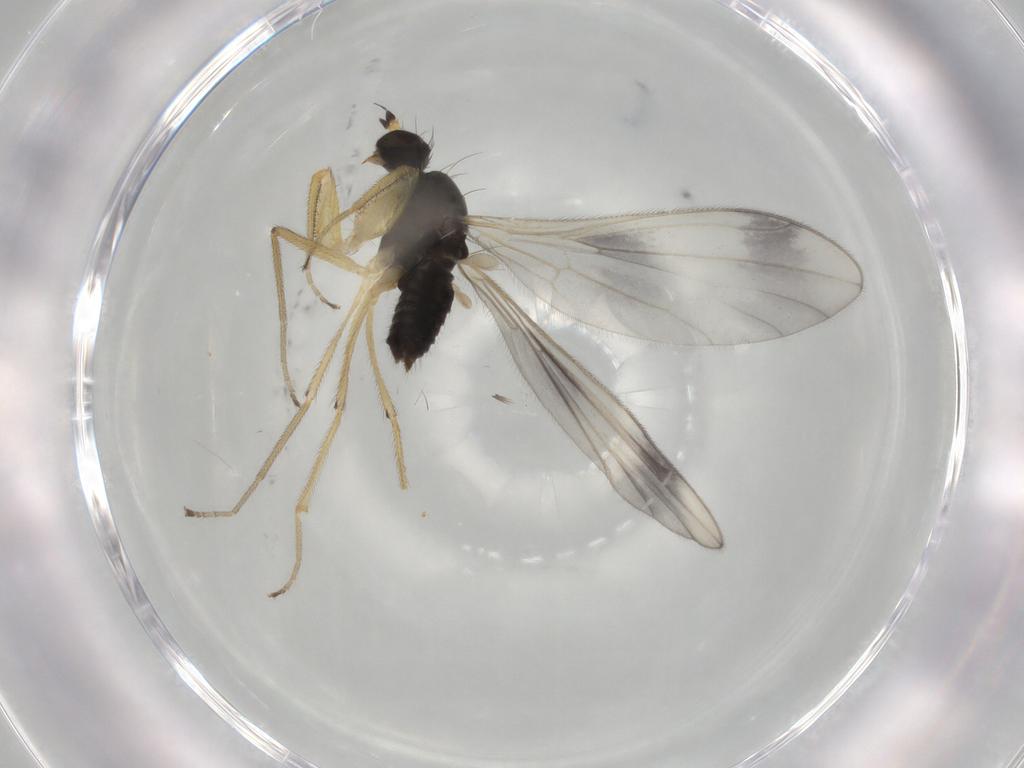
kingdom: Animalia
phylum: Arthropoda
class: Insecta
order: Diptera
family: Empididae
